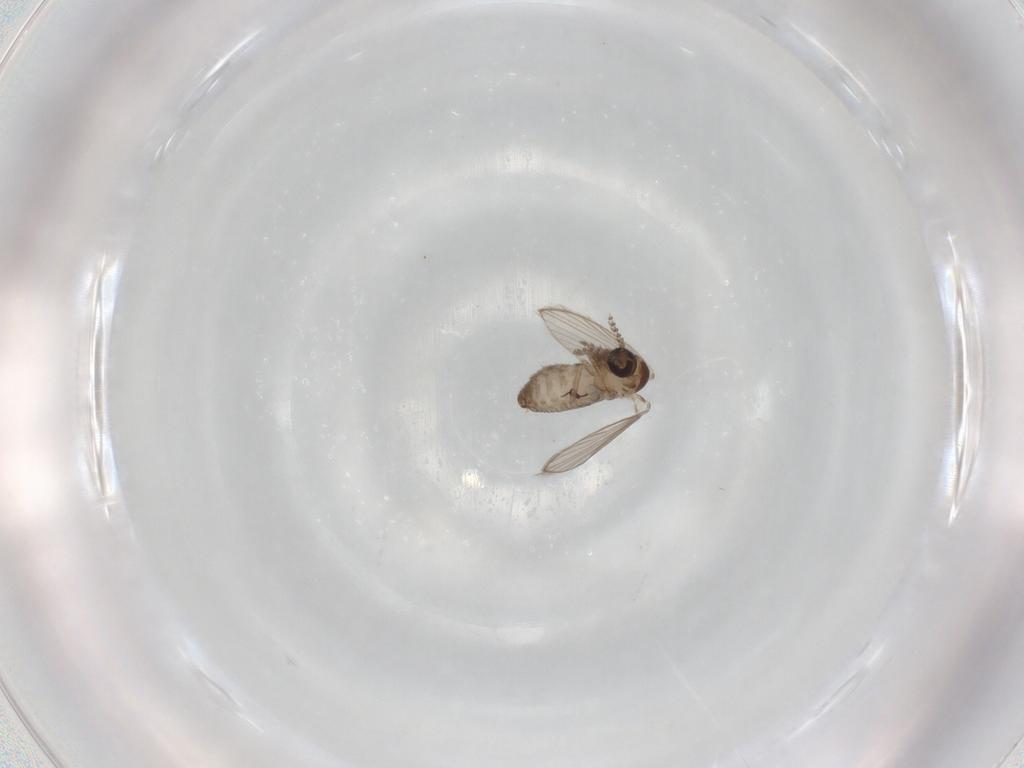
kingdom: Animalia
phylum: Arthropoda
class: Insecta
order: Diptera
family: Psychodidae
